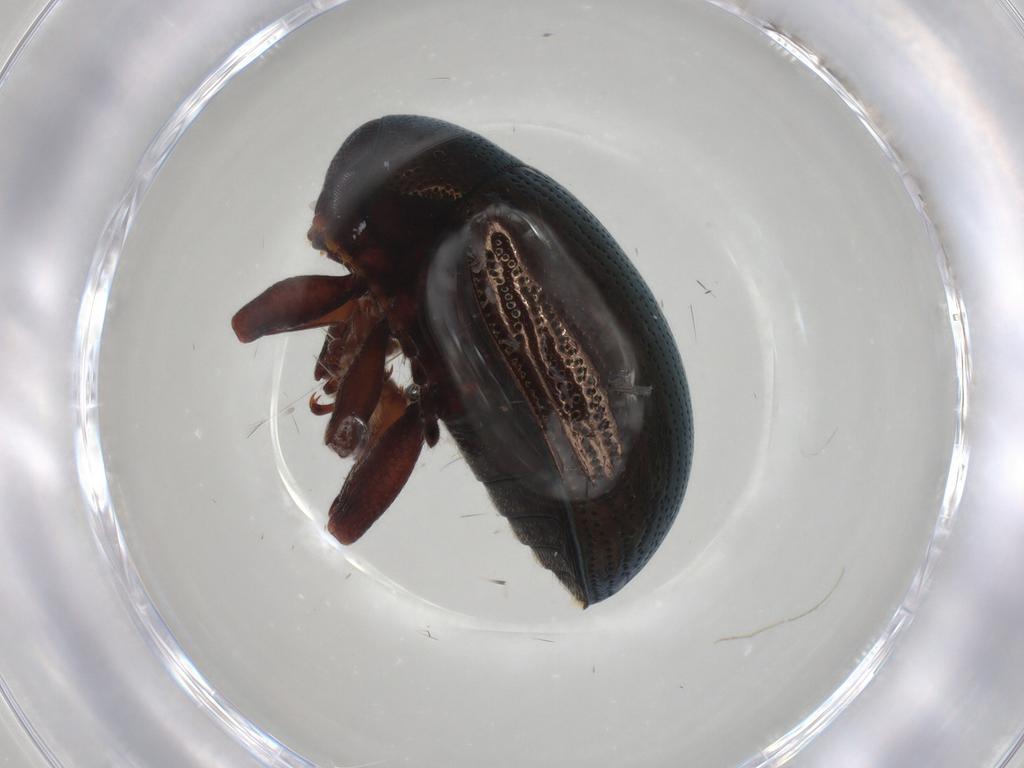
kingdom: Animalia
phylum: Arthropoda
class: Insecta
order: Coleoptera
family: Chrysomelidae
